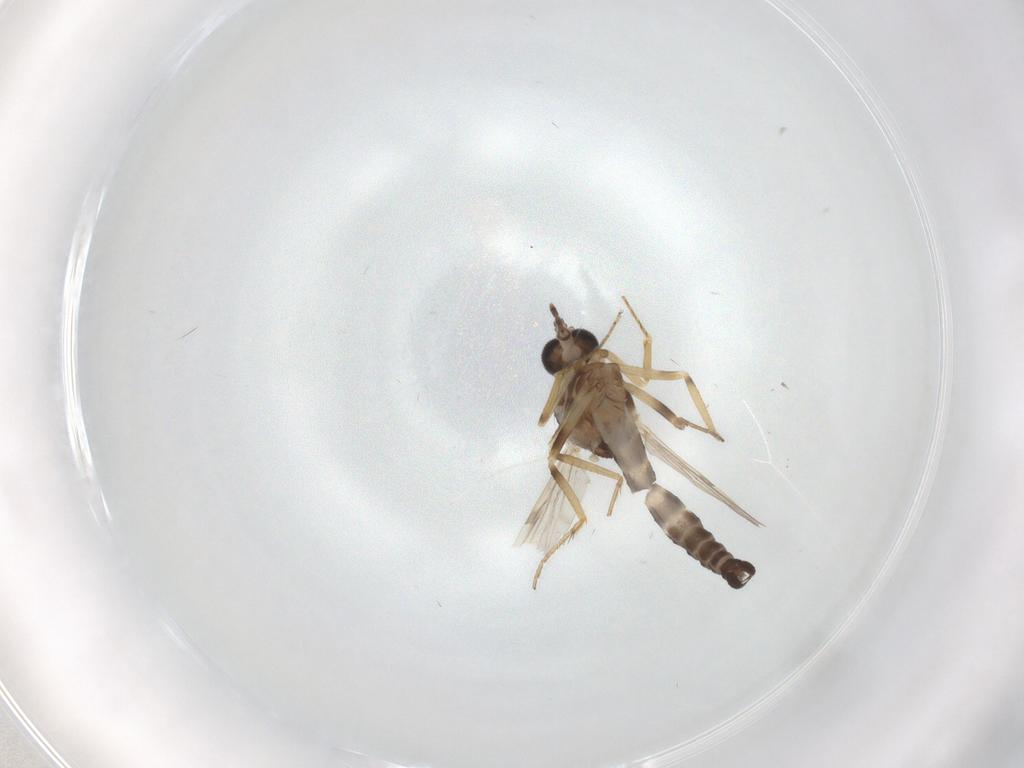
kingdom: Animalia
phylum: Arthropoda
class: Insecta
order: Diptera
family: Ceratopogonidae
